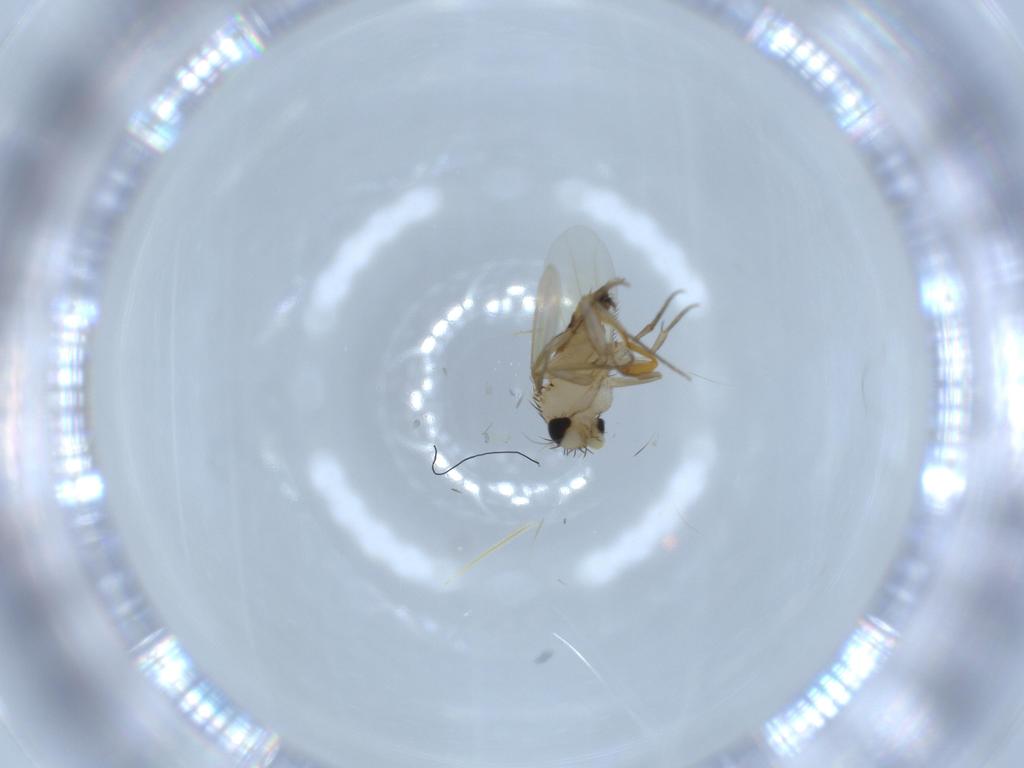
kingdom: Animalia
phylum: Arthropoda
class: Insecta
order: Diptera
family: Phoridae
